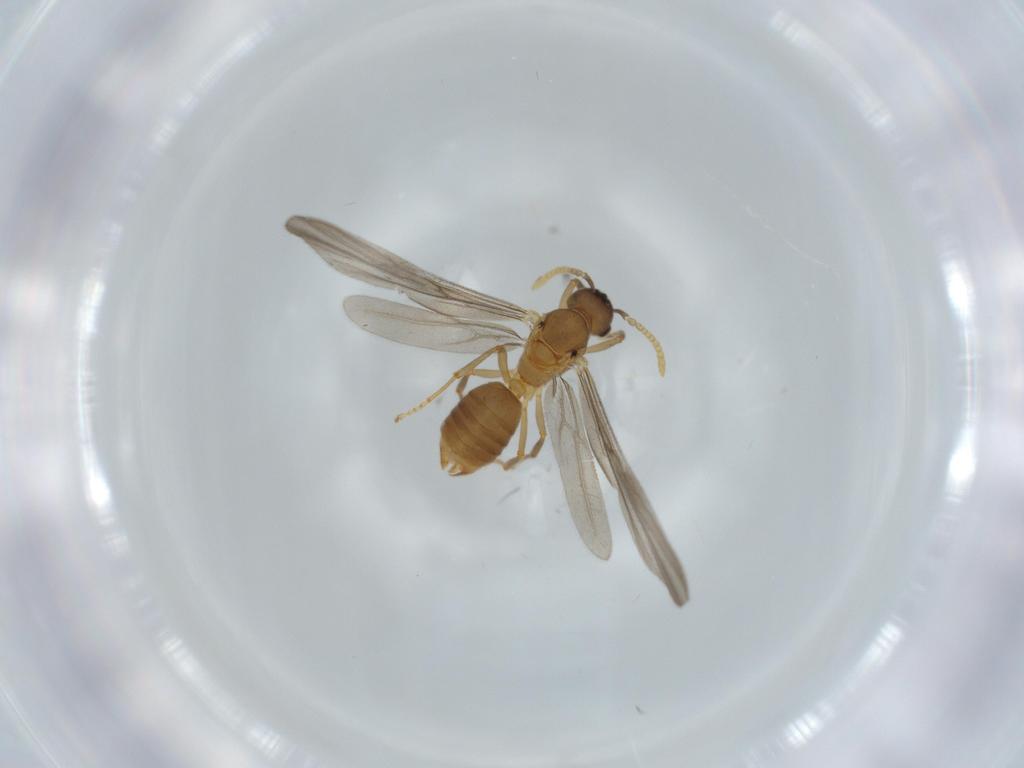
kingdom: Animalia
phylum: Arthropoda
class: Insecta
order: Hymenoptera
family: Formicidae
